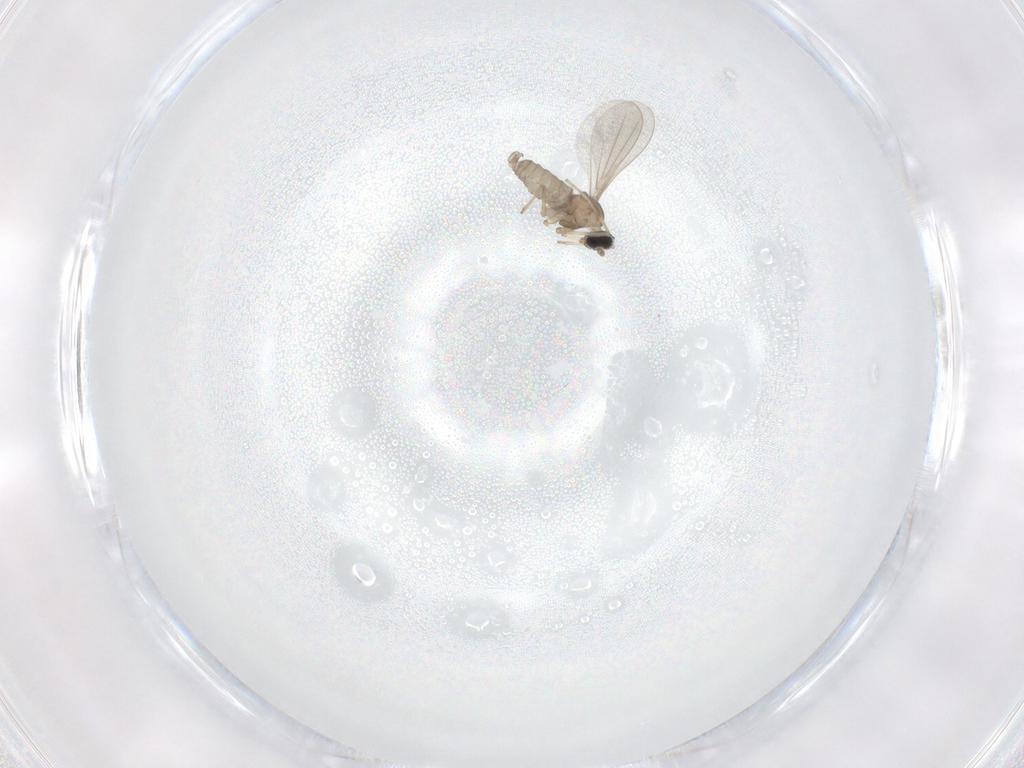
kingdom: Animalia
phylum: Arthropoda
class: Insecta
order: Diptera
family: Cecidomyiidae
